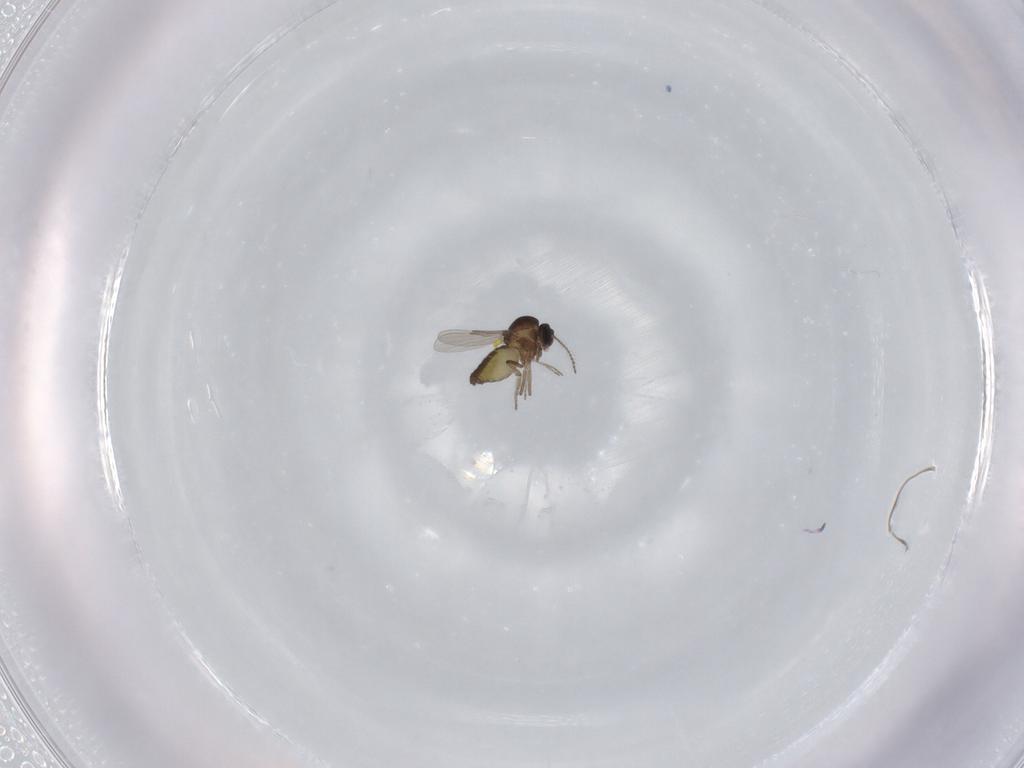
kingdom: Animalia
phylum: Arthropoda
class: Insecta
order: Diptera
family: Ceratopogonidae
